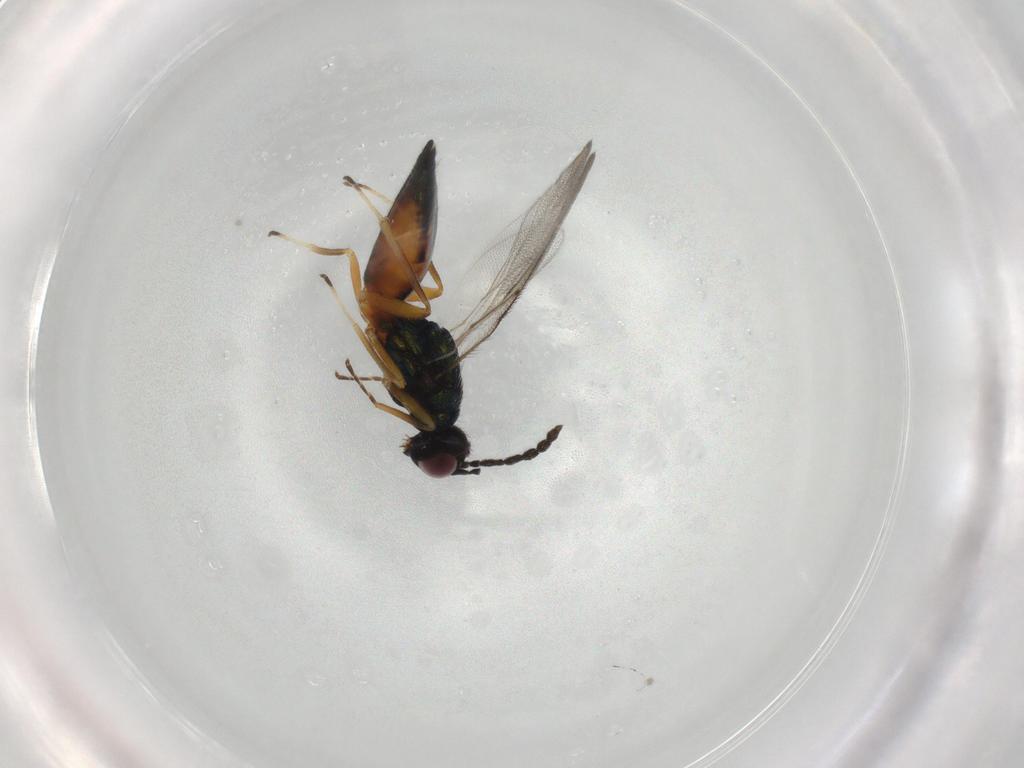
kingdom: Animalia
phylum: Arthropoda
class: Insecta
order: Hymenoptera
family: Eulophidae
